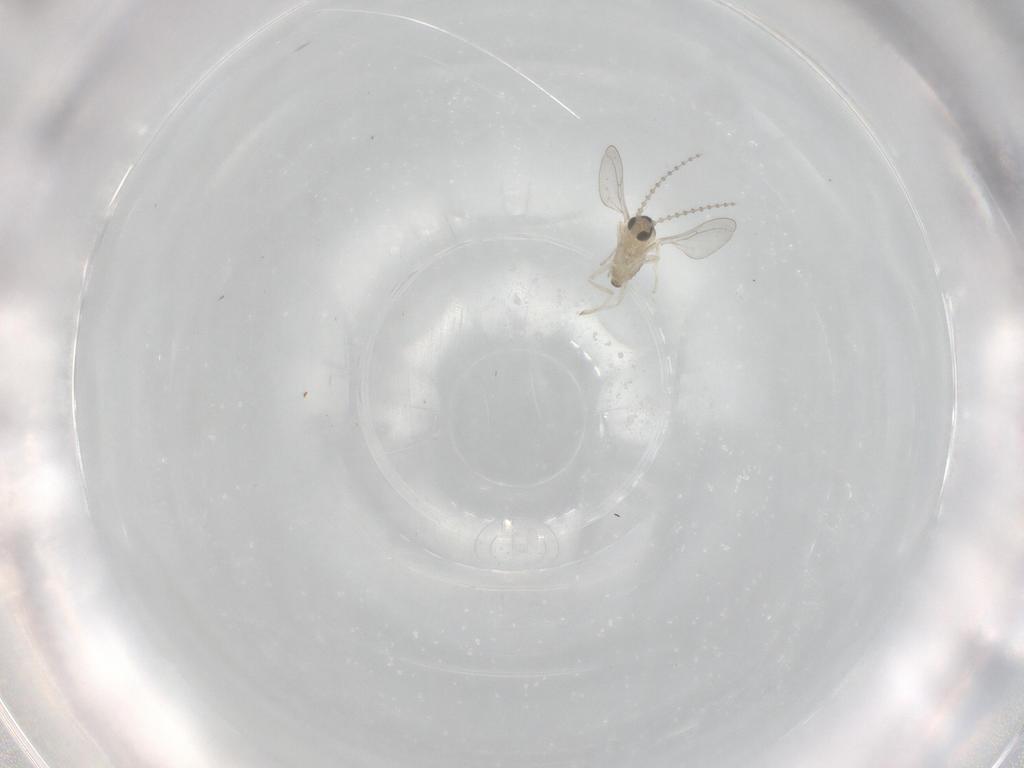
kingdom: Animalia
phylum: Arthropoda
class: Insecta
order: Diptera
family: Cecidomyiidae
